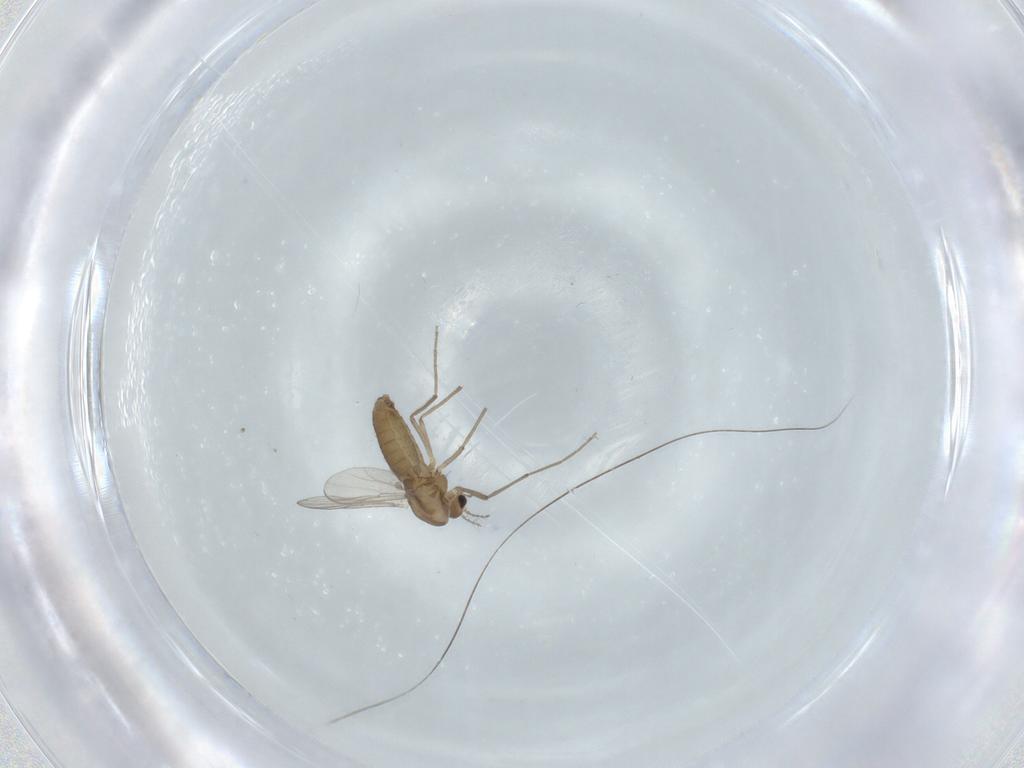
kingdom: Animalia
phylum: Arthropoda
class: Insecta
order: Diptera
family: Chironomidae
